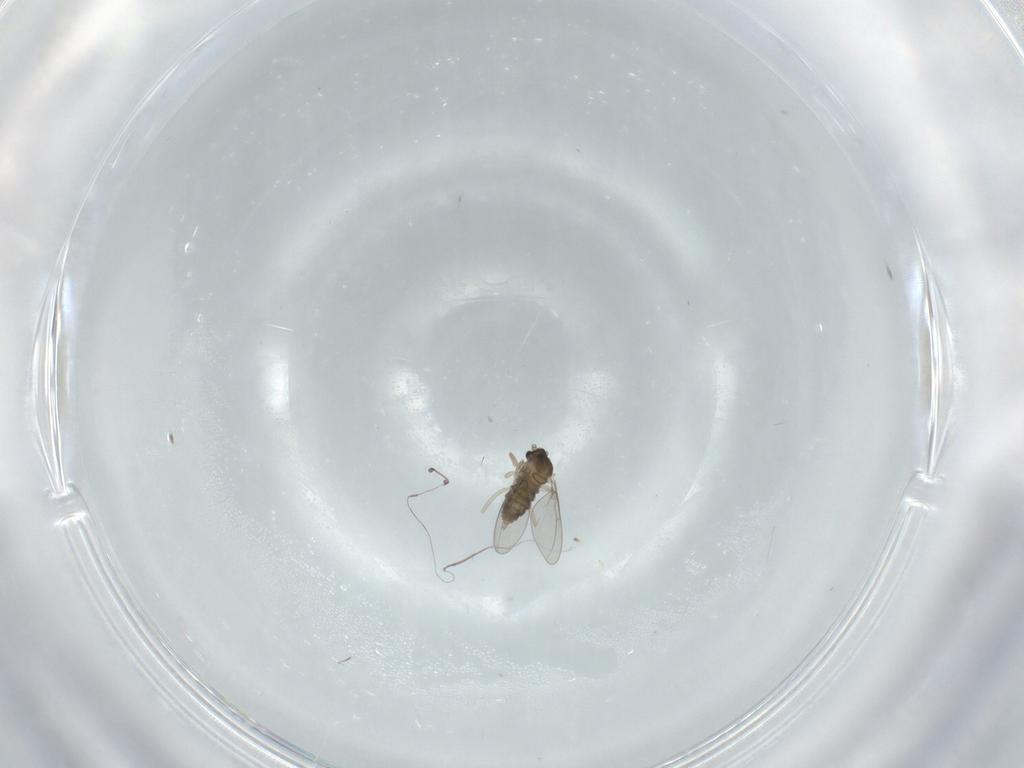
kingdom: Animalia
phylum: Arthropoda
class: Insecta
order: Diptera
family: Cecidomyiidae
